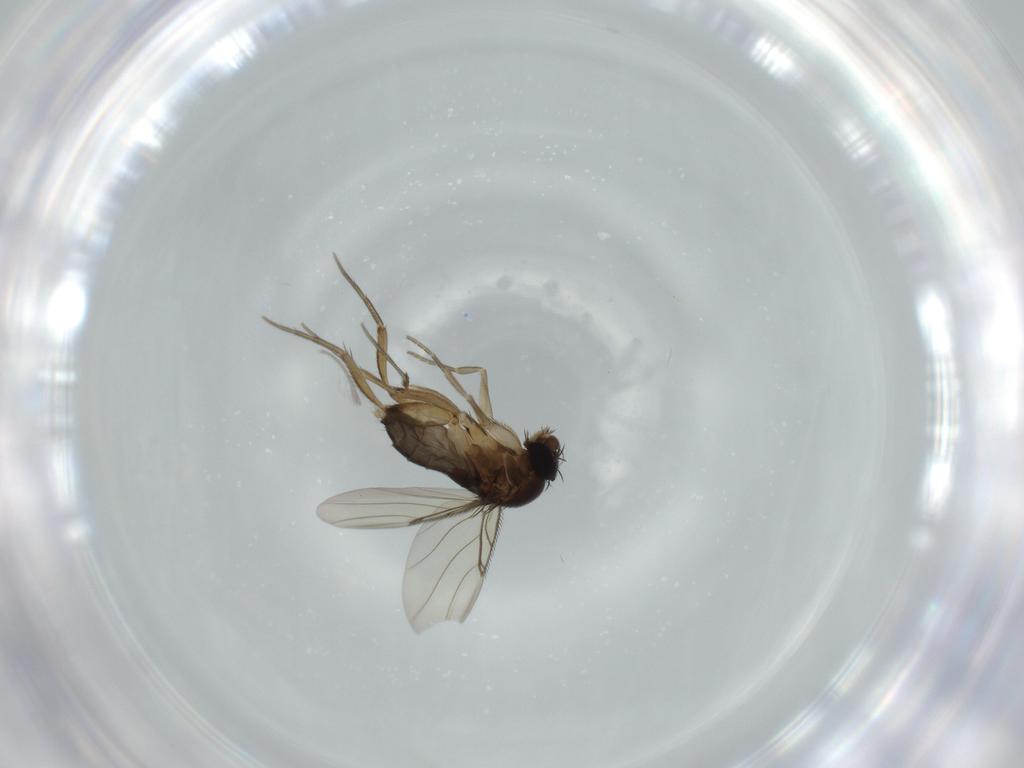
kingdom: Animalia
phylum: Arthropoda
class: Insecta
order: Diptera
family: Phoridae
